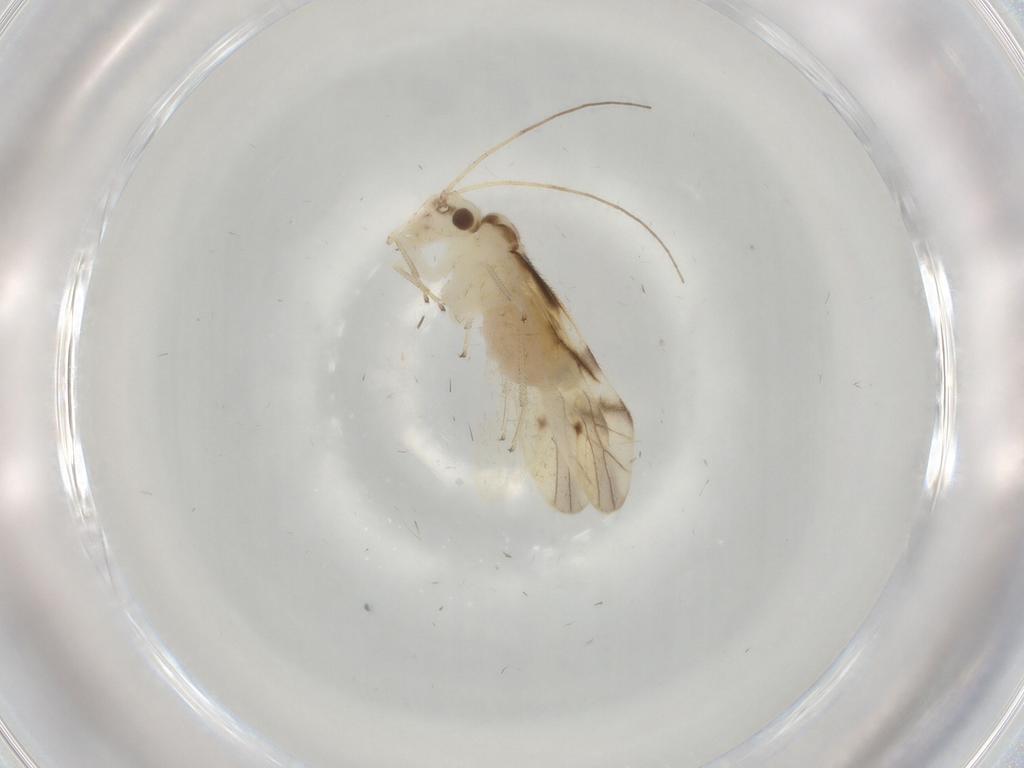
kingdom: Animalia
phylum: Arthropoda
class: Insecta
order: Psocodea
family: Caeciliusidae
